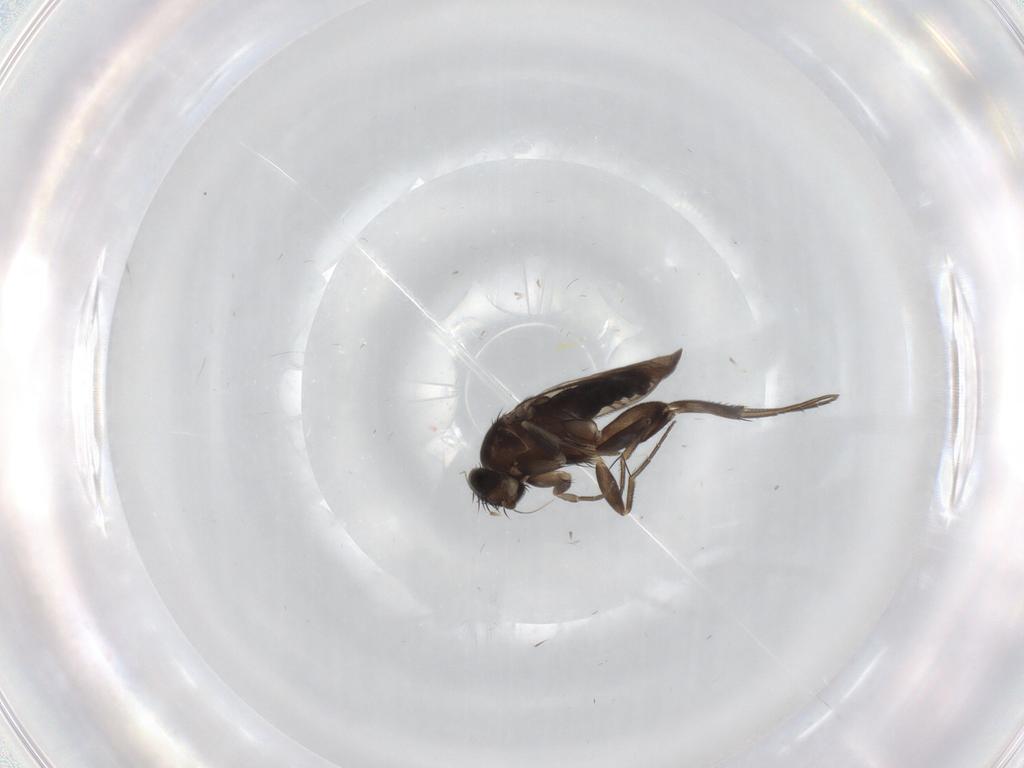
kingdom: Animalia
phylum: Arthropoda
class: Insecta
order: Diptera
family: Phoridae
